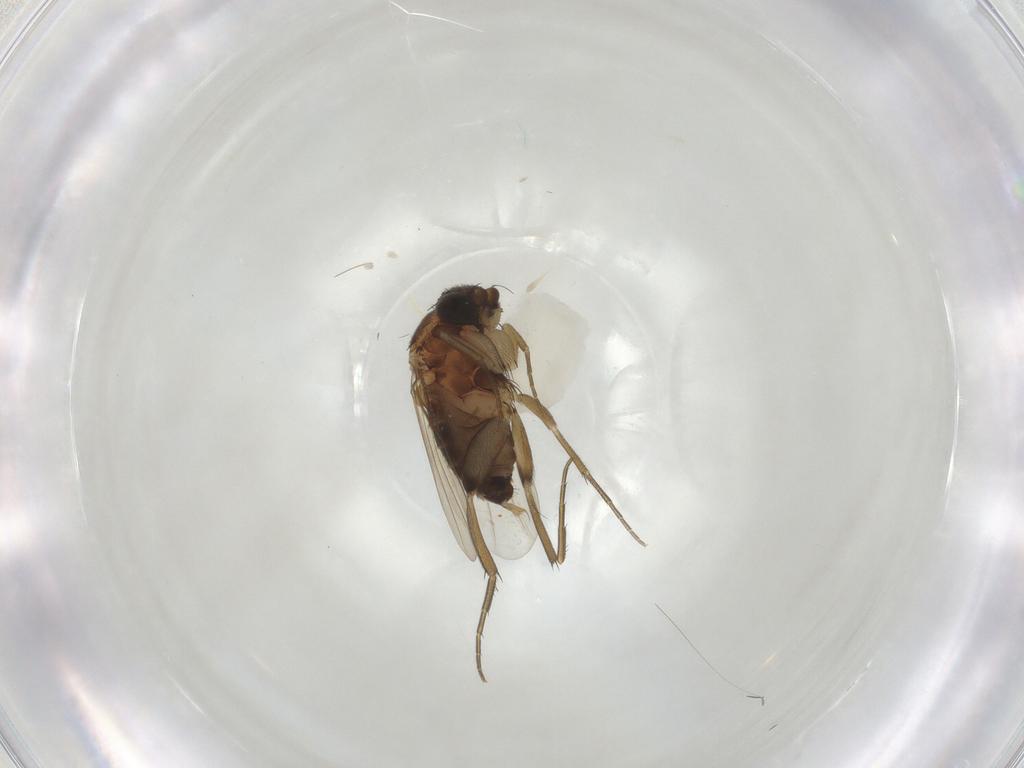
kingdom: Animalia
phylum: Arthropoda
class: Insecta
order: Diptera
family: Phoridae
